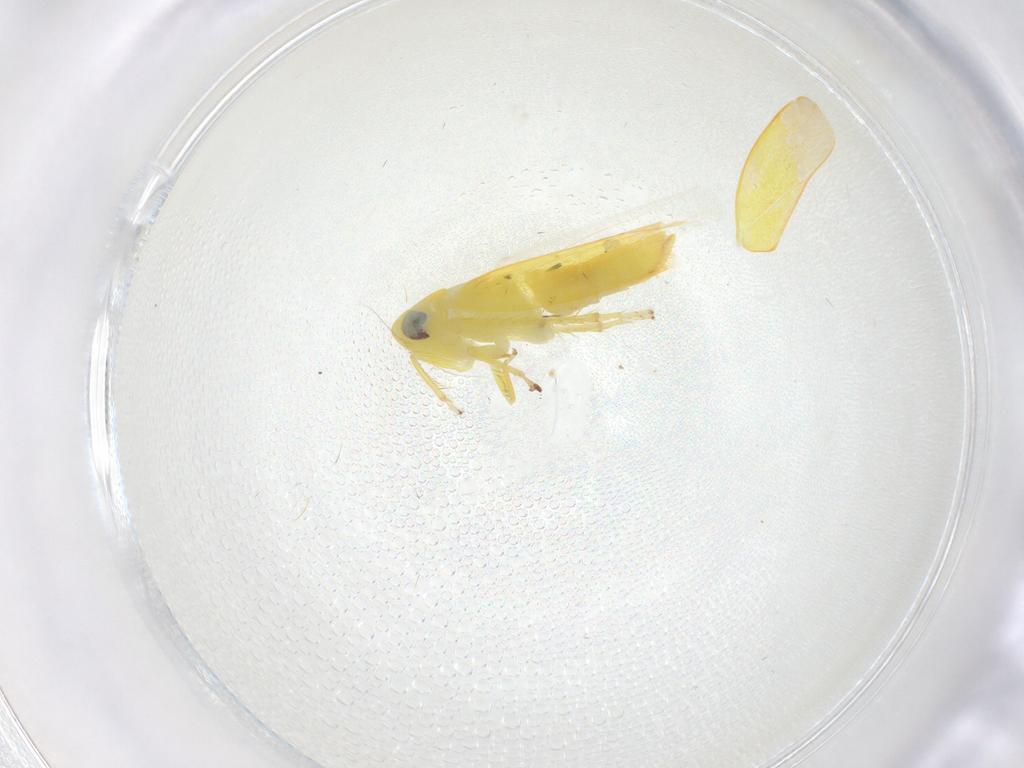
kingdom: Animalia
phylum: Arthropoda
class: Insecta
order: Hemiptera
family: Cicadellidae
